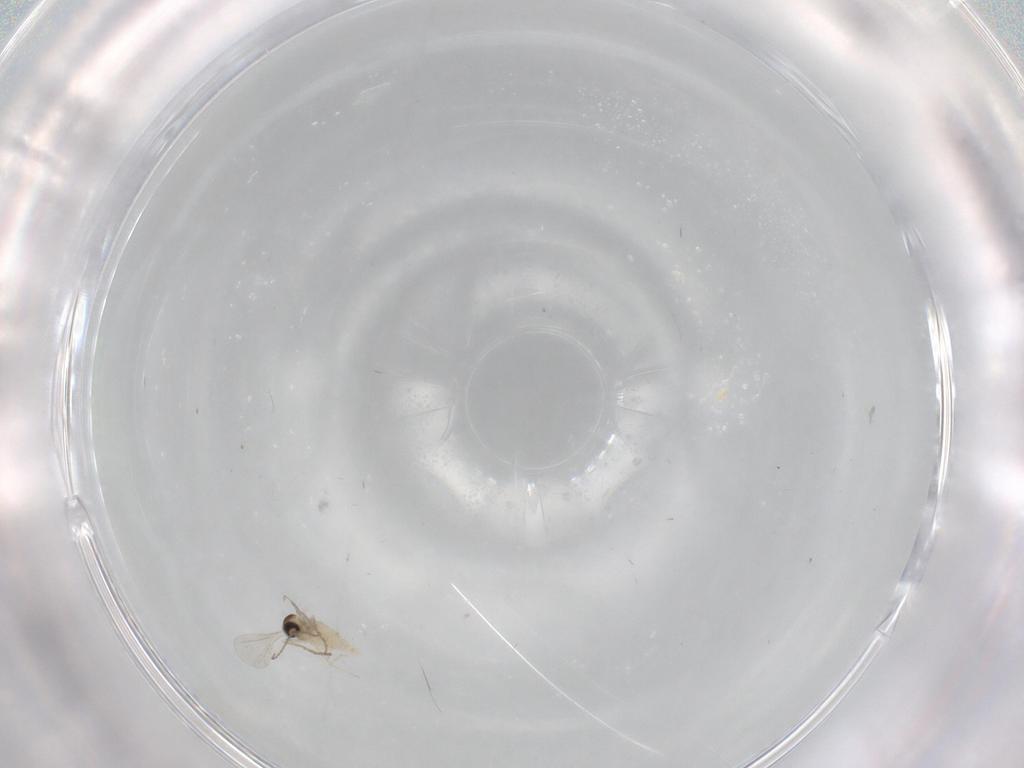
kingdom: Animalia
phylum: Arthropoda
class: Insecta
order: Diptera
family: Cecidomyiidae
